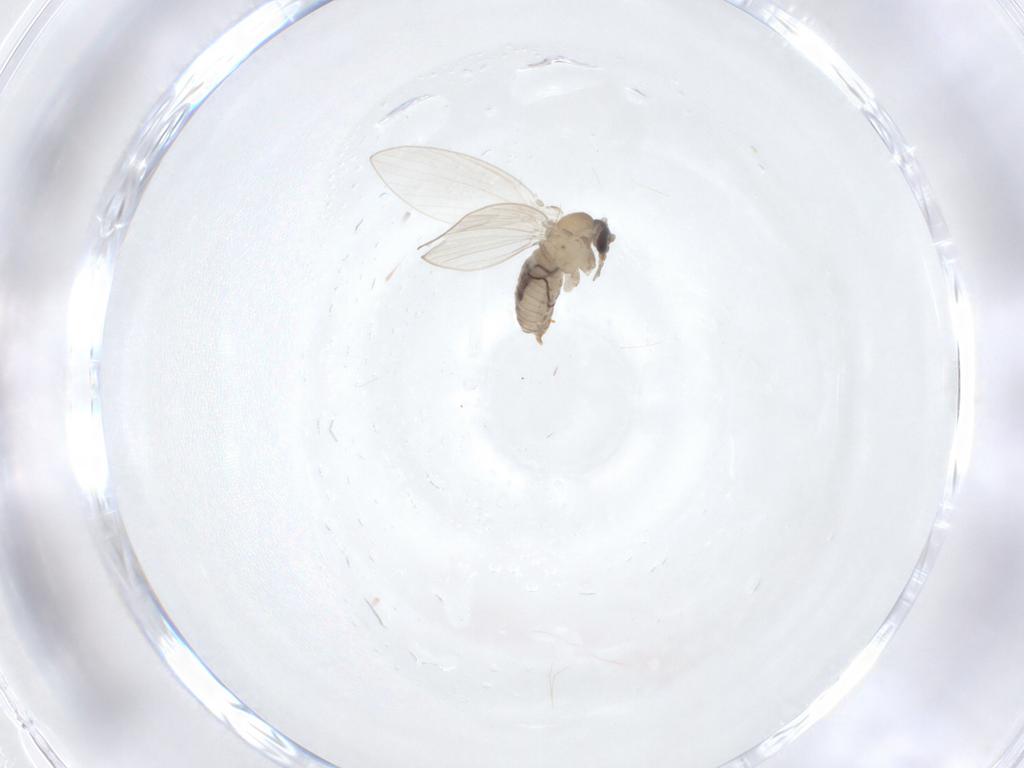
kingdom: Animalia
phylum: Arthropoda
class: Insecta
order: Diptera
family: Psychodidae
